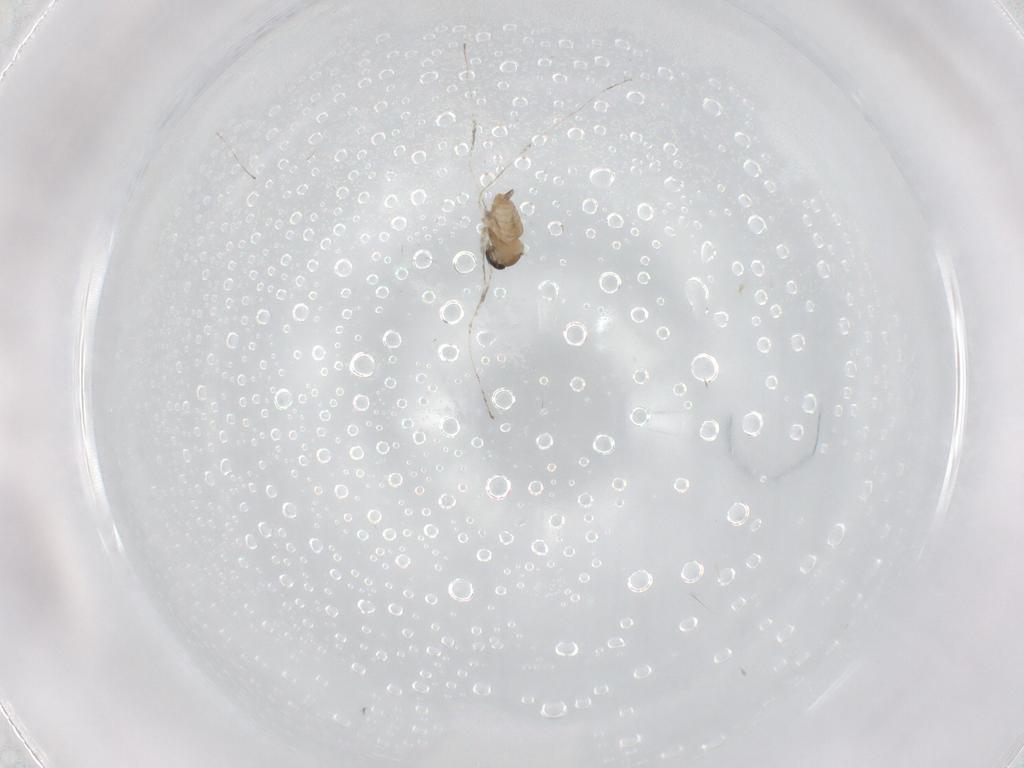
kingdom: Animalia
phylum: Arthropoda
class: Insecta
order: Diptera
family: Cecidomyiidae
